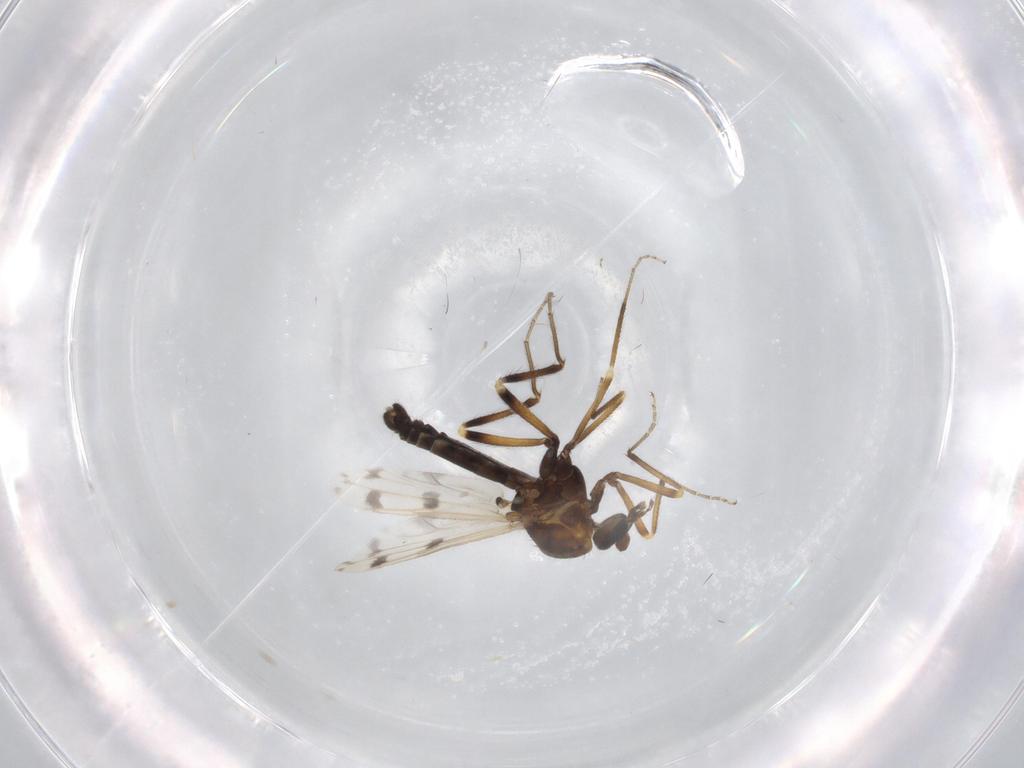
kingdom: Animalia
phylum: Arthropoda
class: Insecta
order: Diptera
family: Ceratopogonidae
